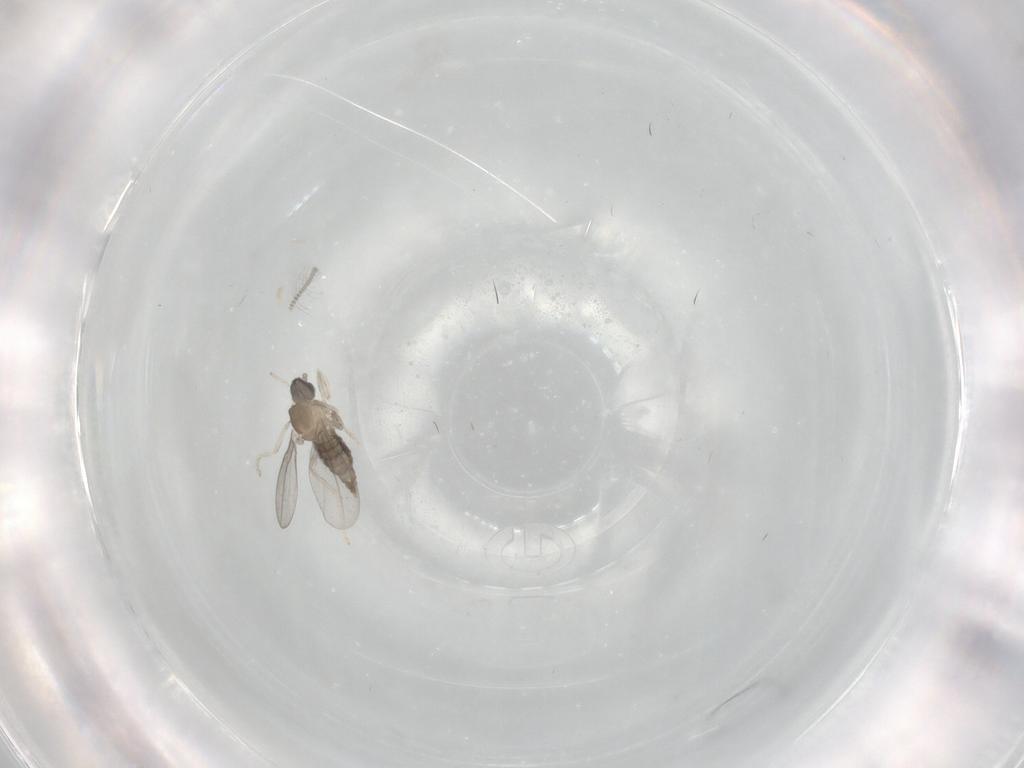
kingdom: Animalia
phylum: Arthropoda
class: Insecta
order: Diptera
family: Cecidomyiidae
